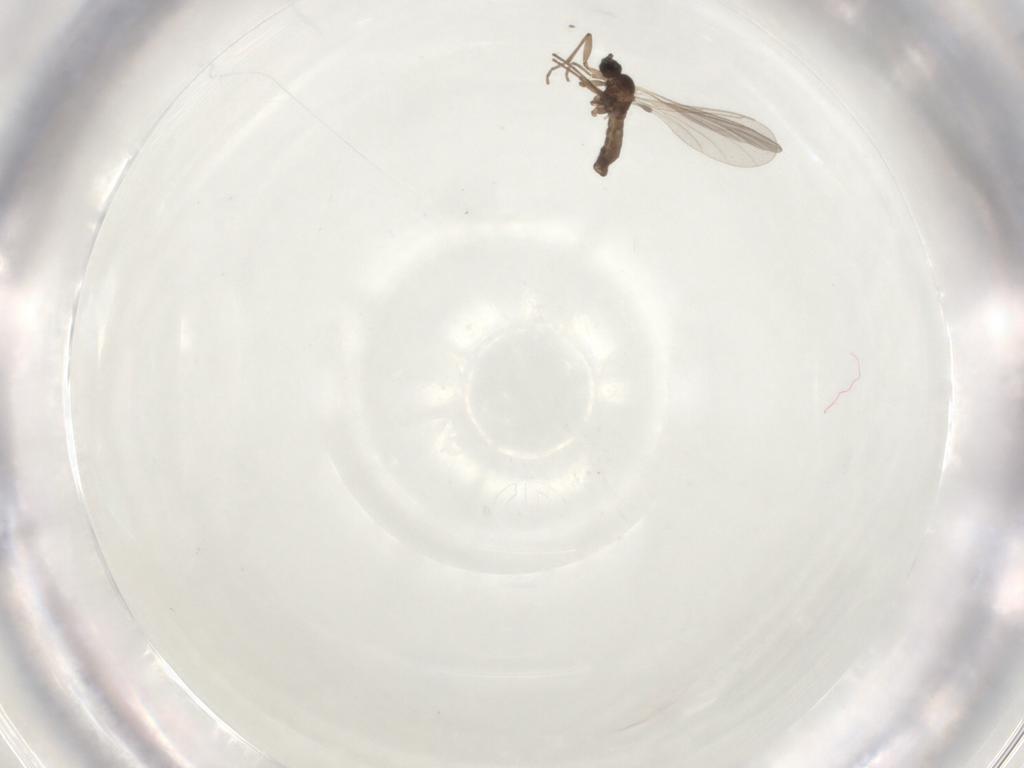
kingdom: Animalia
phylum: Arthropoda
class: Insecta
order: Diptera
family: Sciaridae
